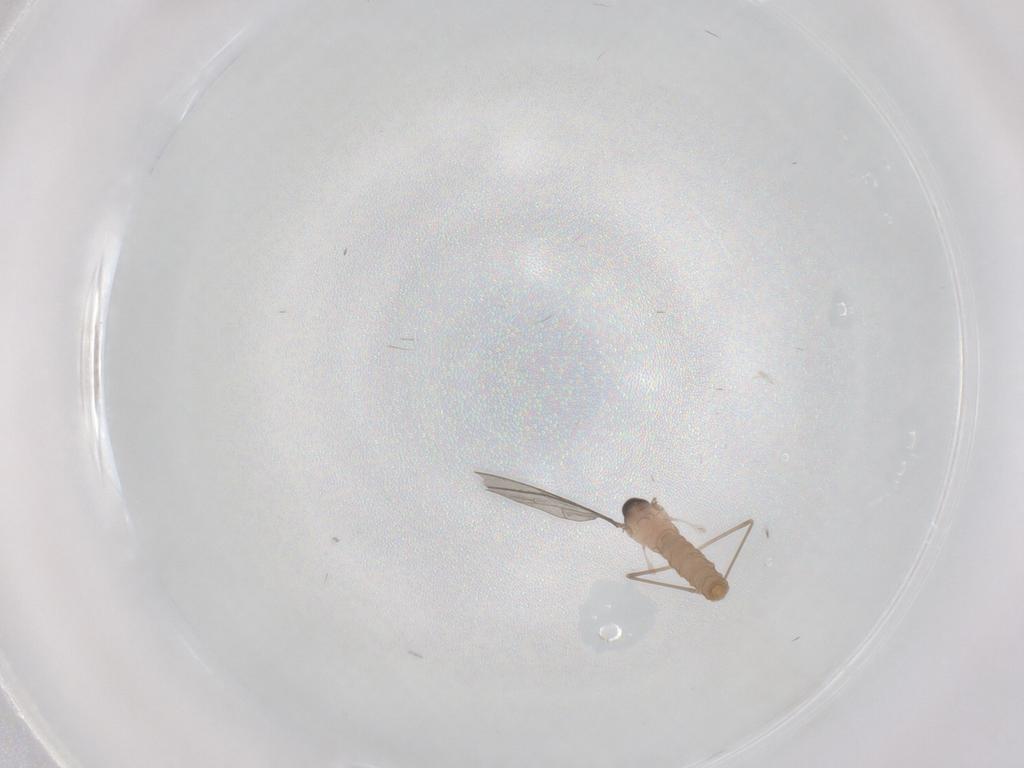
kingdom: Animalia
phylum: Arthropoda
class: Insecta
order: Diptera
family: Cecidomyiidae
